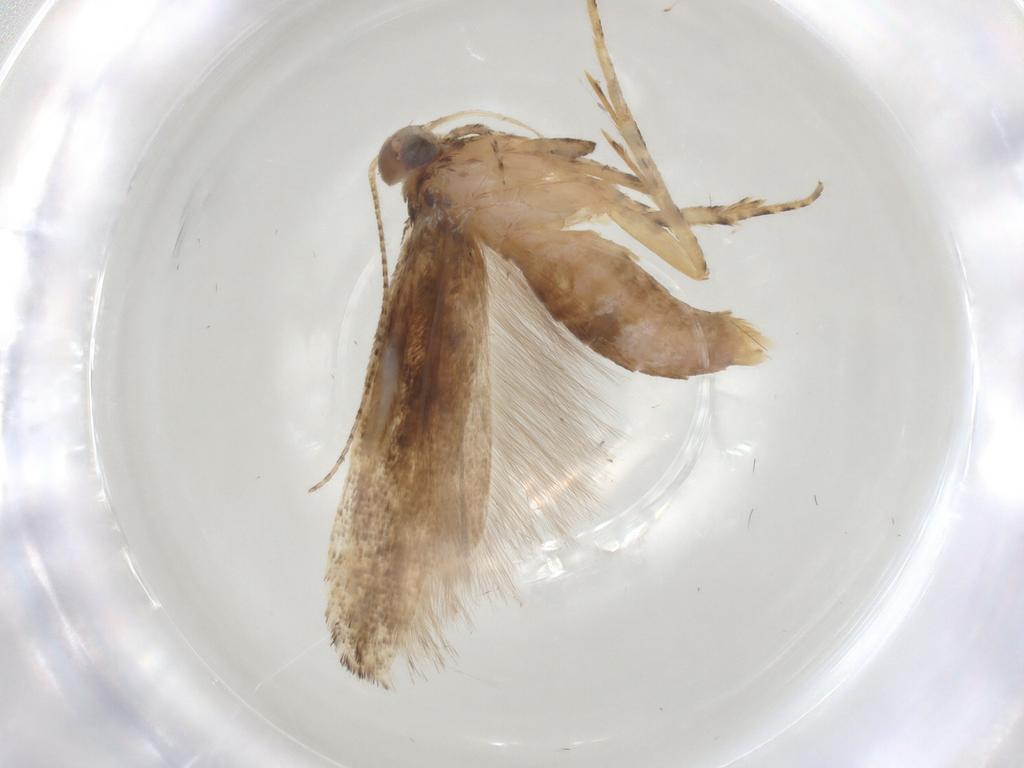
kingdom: Animalia
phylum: Arthropoda
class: Insecta
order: Lepidoptera
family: Gelechiidae
